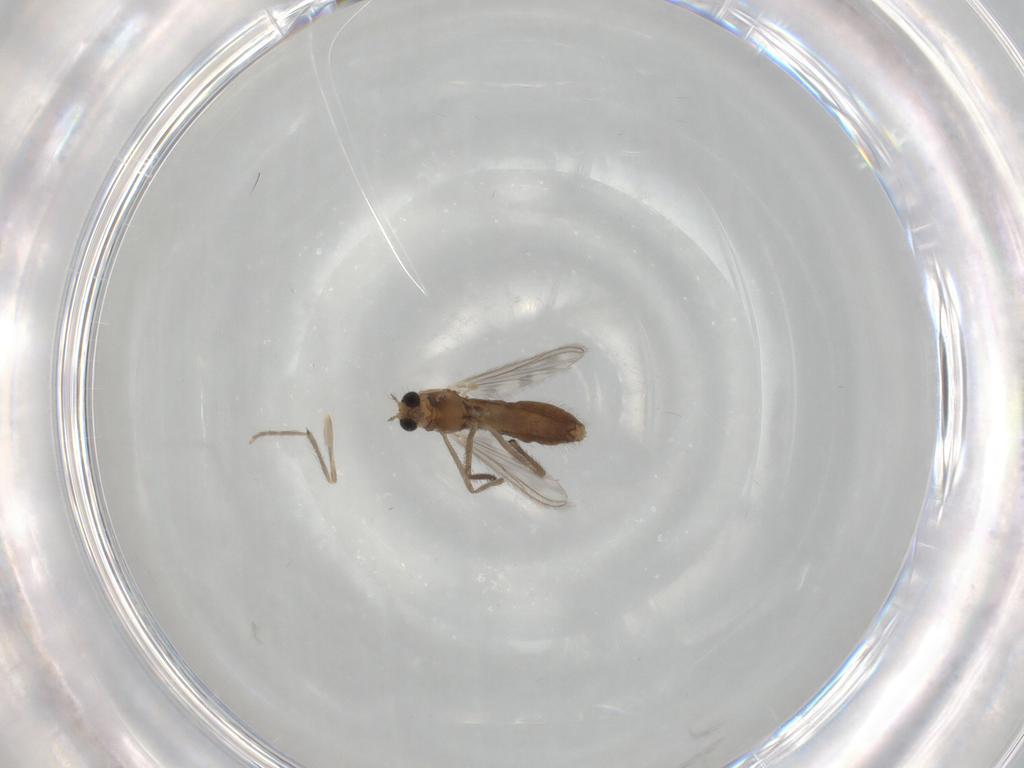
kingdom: Animalia
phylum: Arthropoda
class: Insecta
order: Diptera
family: Chironomidae
